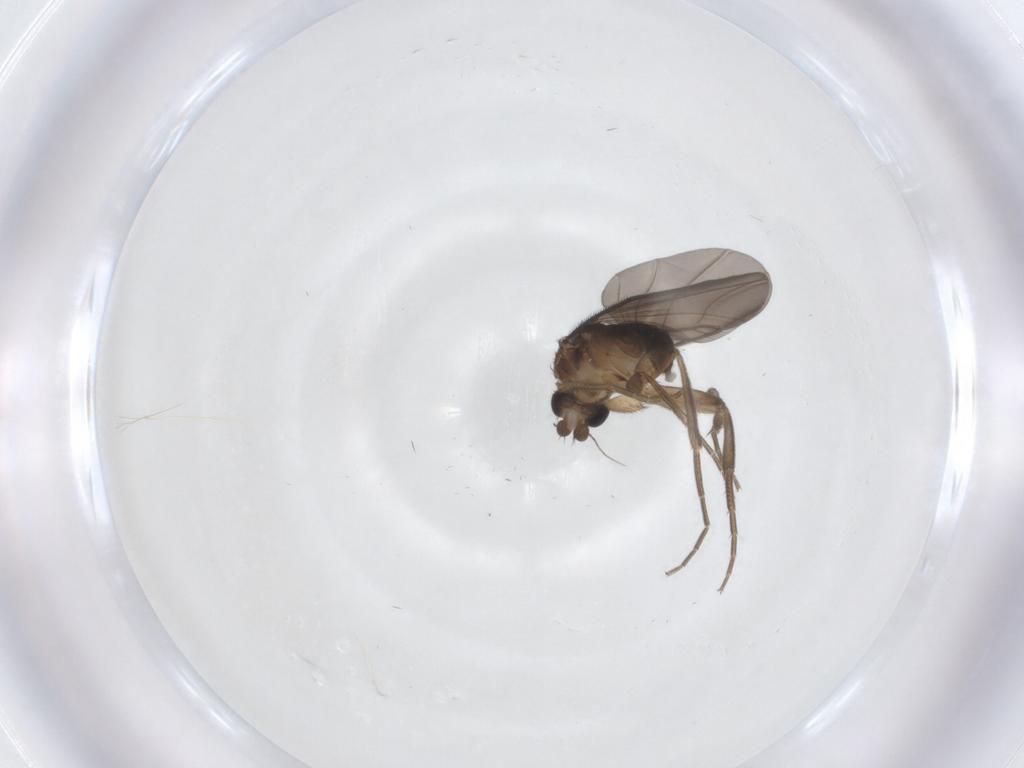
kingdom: Animalia
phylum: Arthropoda
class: Insecta
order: Diptera
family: Phoridae
